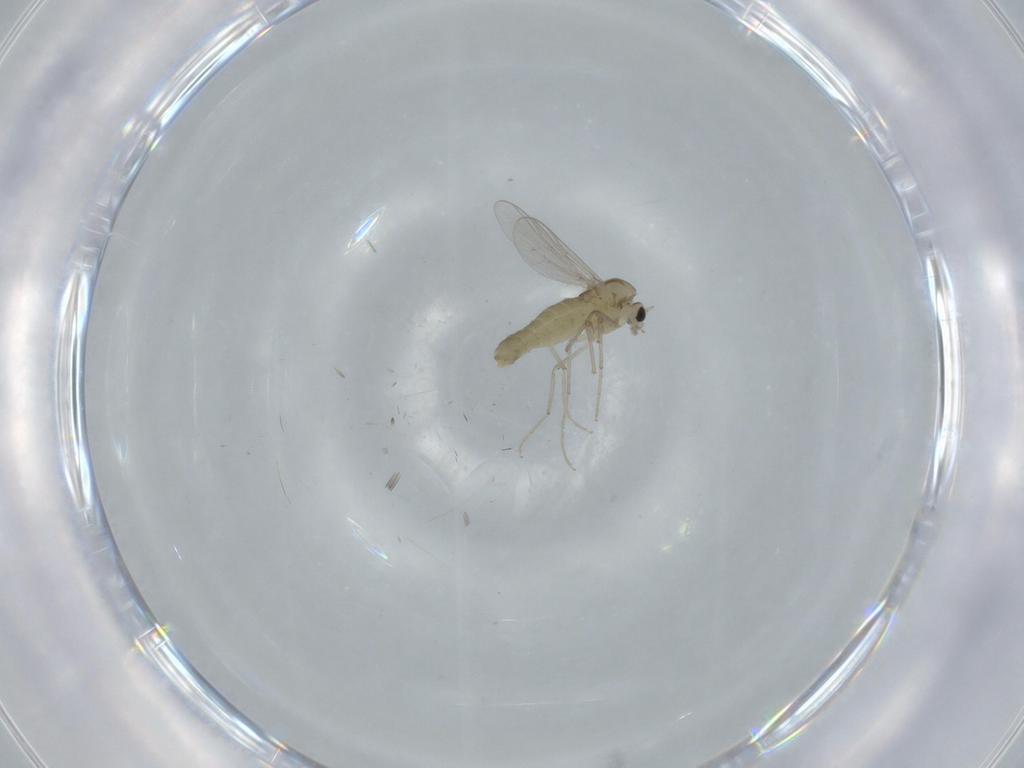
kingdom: Animalia
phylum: Arthropoda
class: Insecta
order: Diptera
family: Chironomidae
